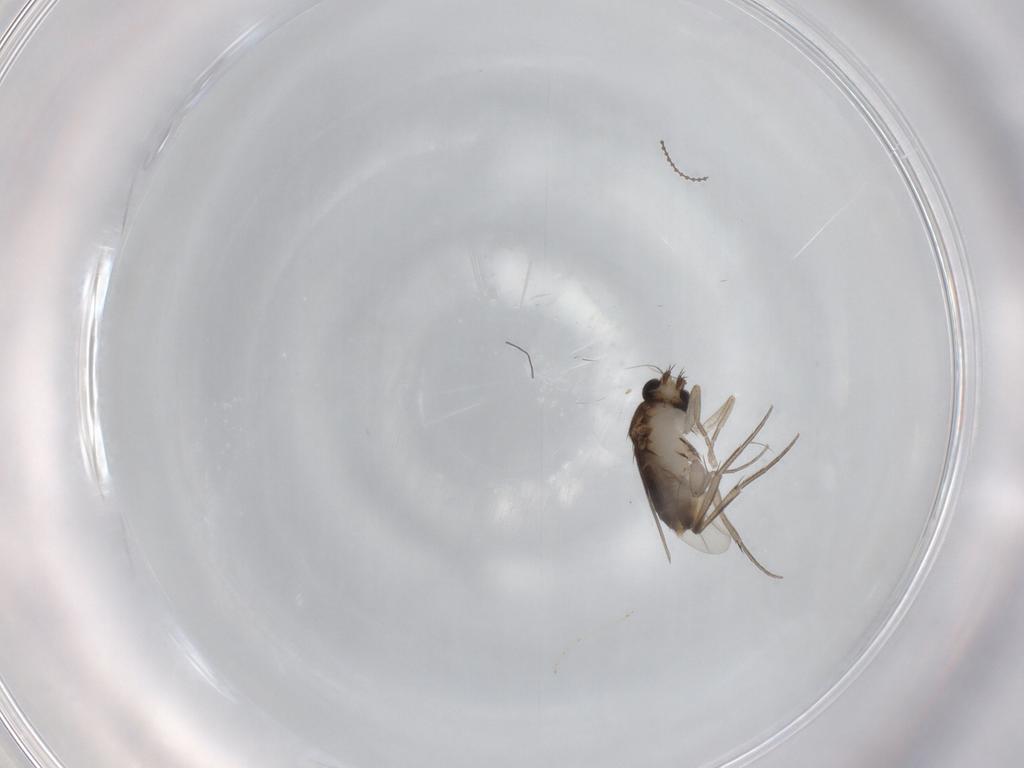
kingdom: Animalia
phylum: Arthropoda
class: Insecta
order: Diptera
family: Phoridae
